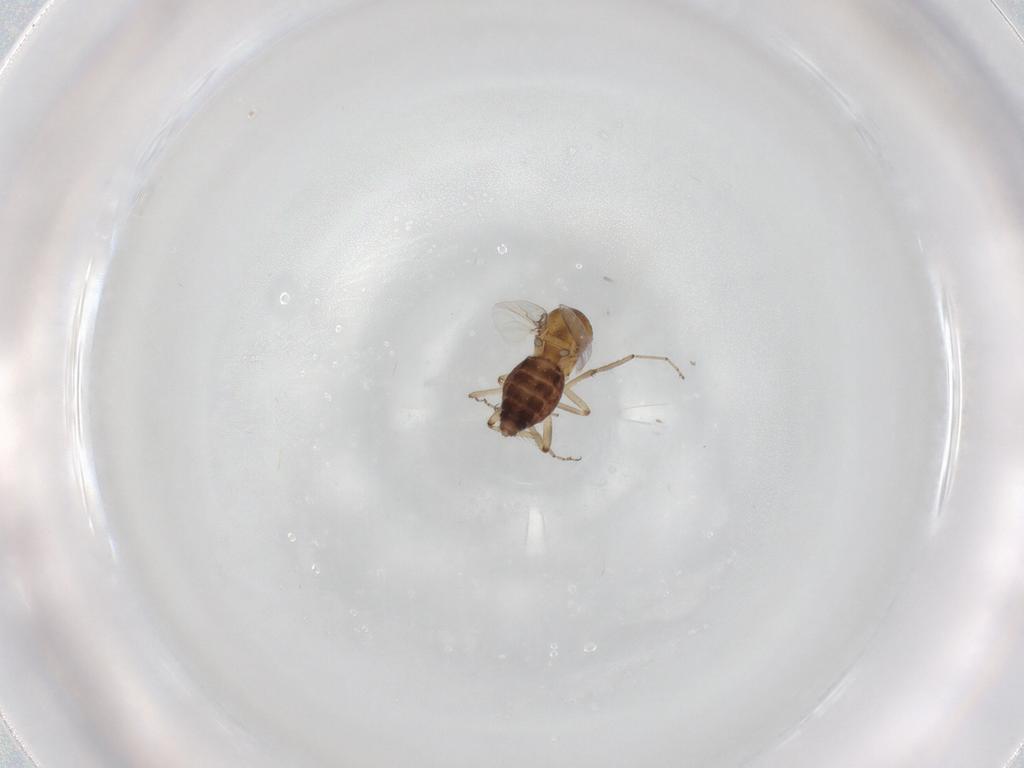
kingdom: Animalia
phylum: Arthropoda
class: Insecta
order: Diptera
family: Ceratopogonidae
